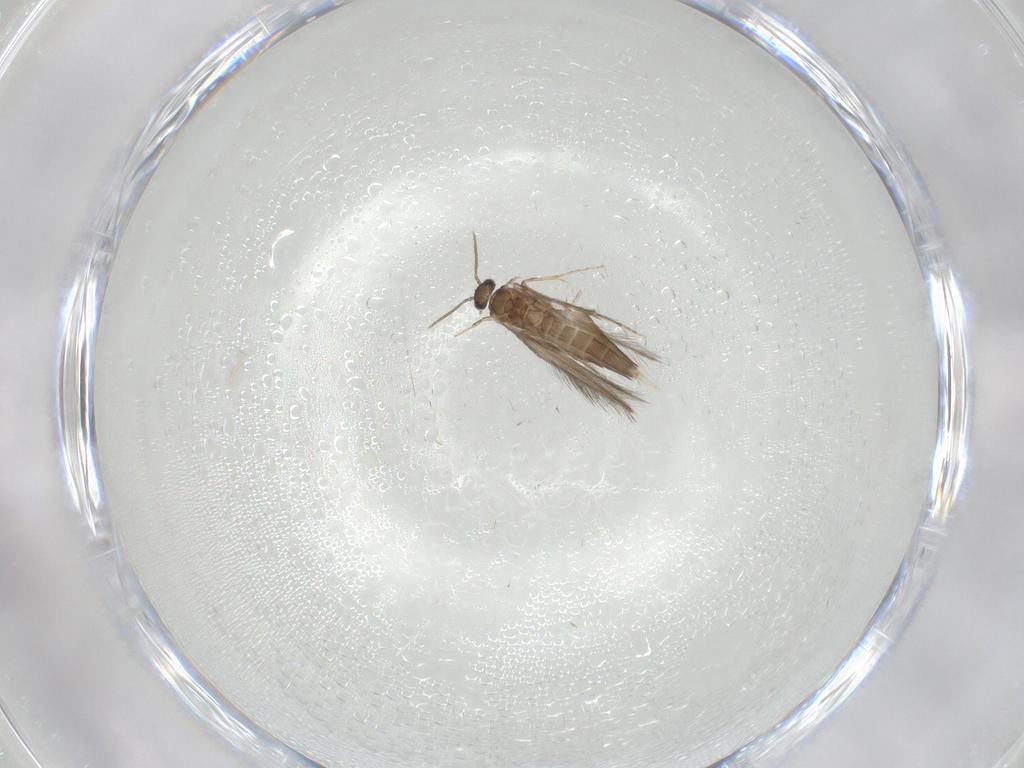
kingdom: Animalia
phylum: Arthropoda
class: Insecta
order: Trichoptera
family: Hydroptilidae
